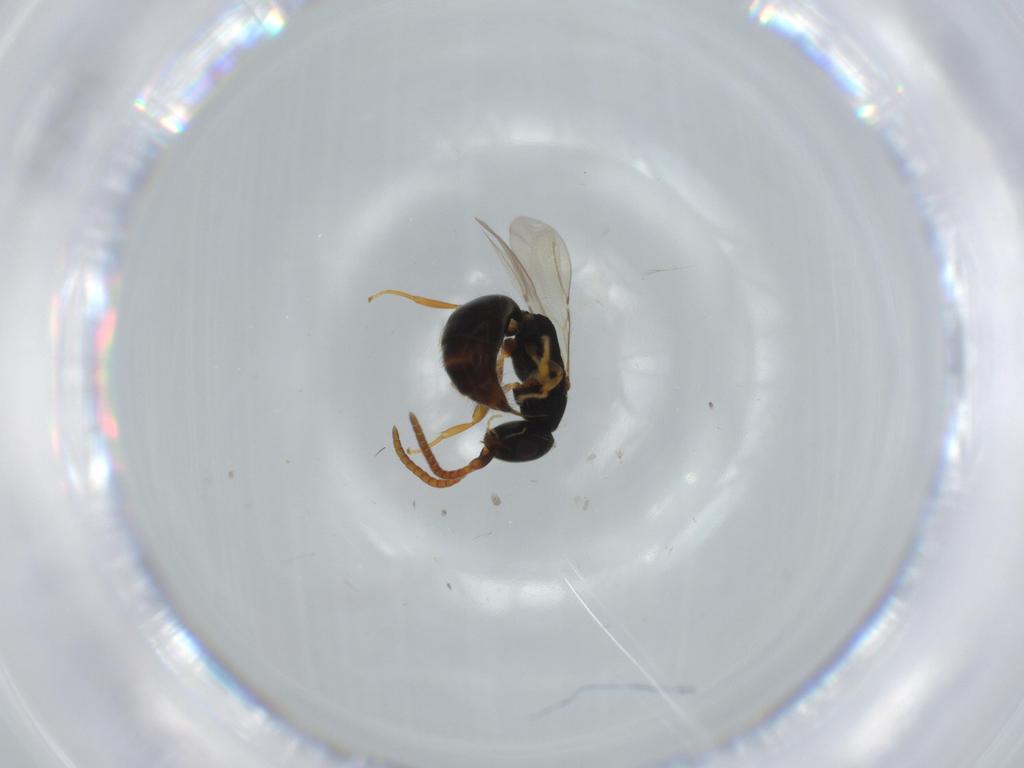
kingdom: Animalia
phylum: Arthropoda
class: Insecta
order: Hymenoptera
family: Bethylidae
